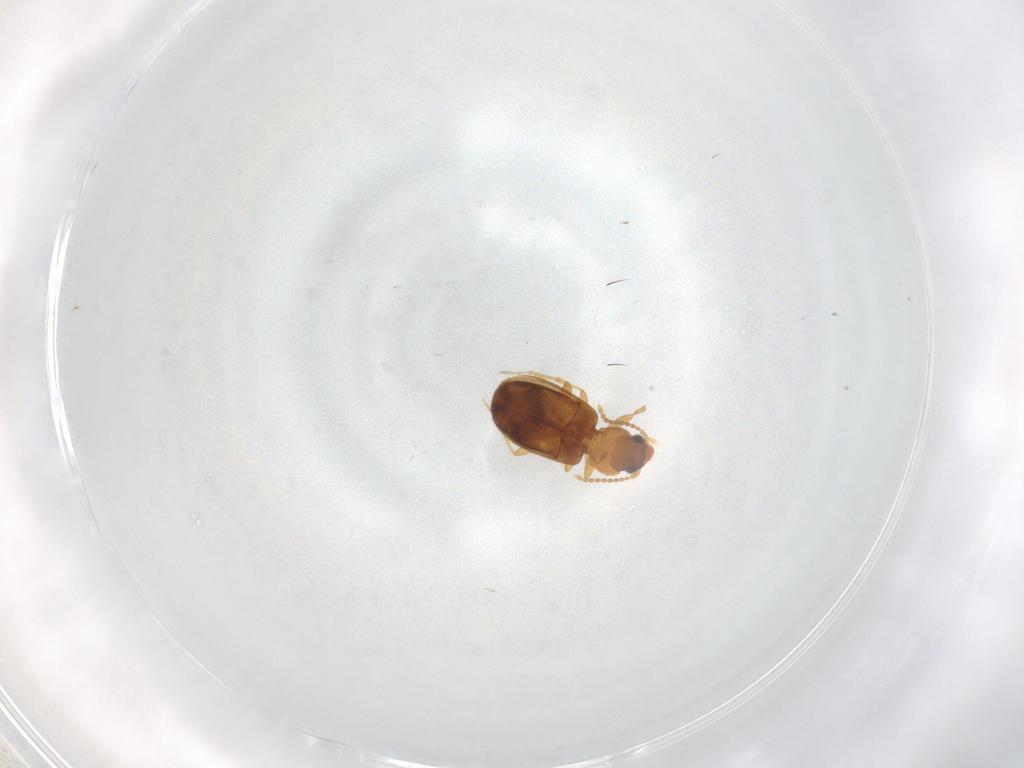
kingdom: Animalia
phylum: Arthropoda
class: Insecta
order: Coleoptera
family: Carabidae
